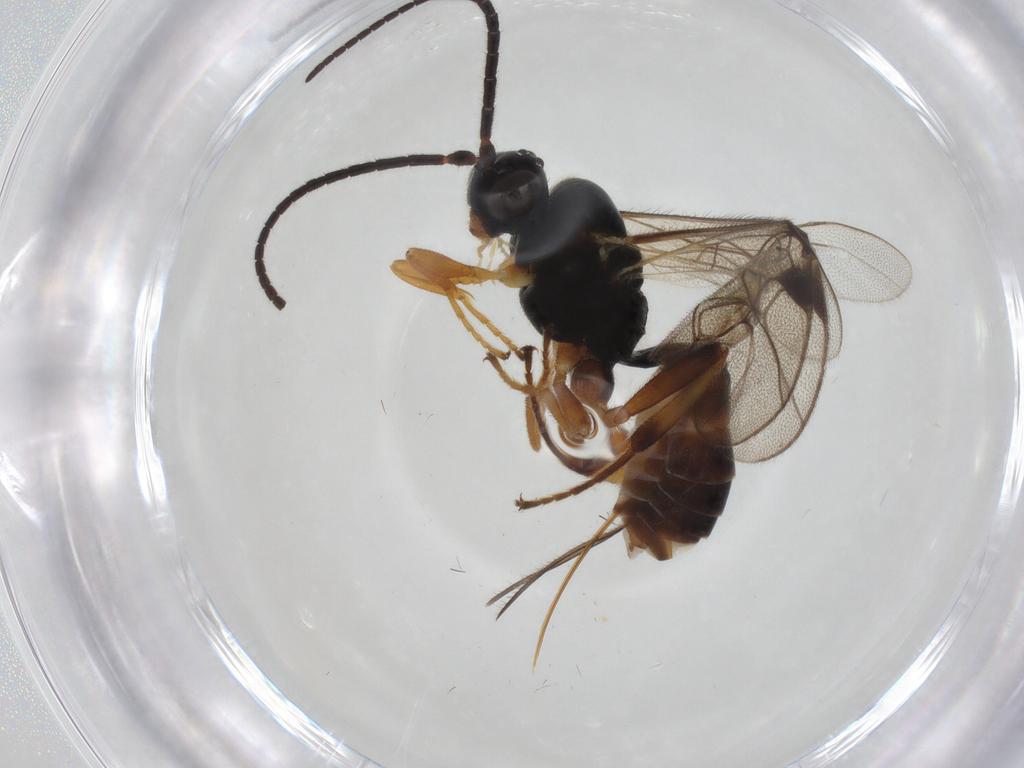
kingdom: Animalia
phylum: Arthropoda
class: Insecta
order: Hymenoptera
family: Ichneumonidae
